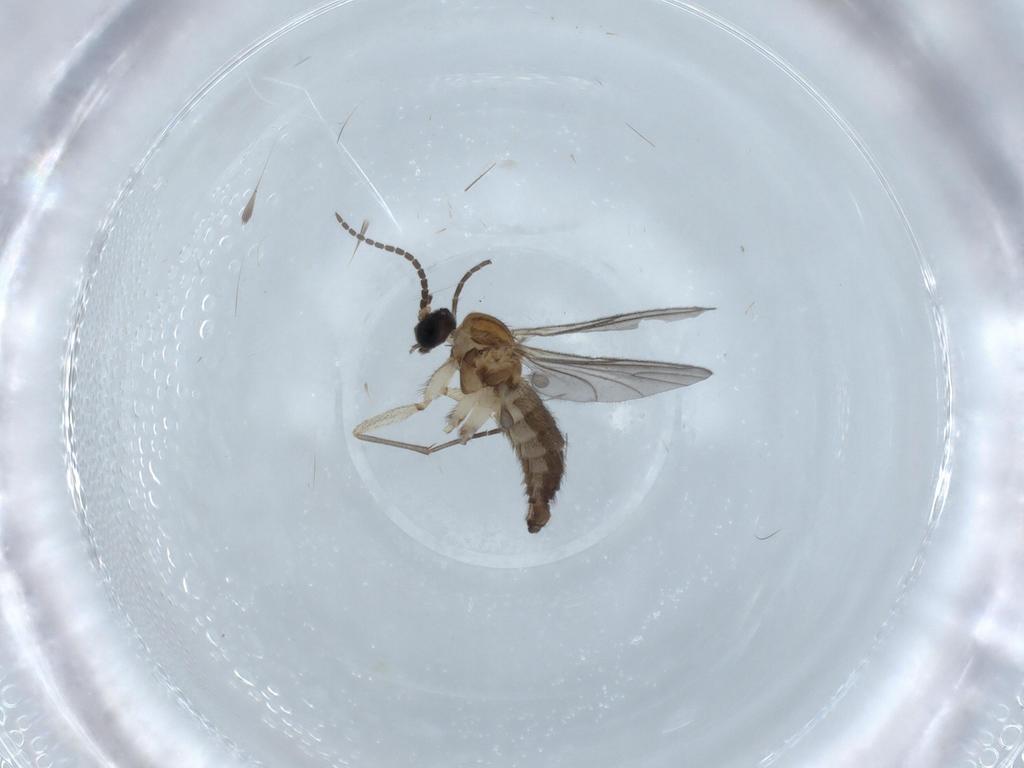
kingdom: Animalia
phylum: Arthropoda
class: Insecta
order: Diptera
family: Sciaridae
